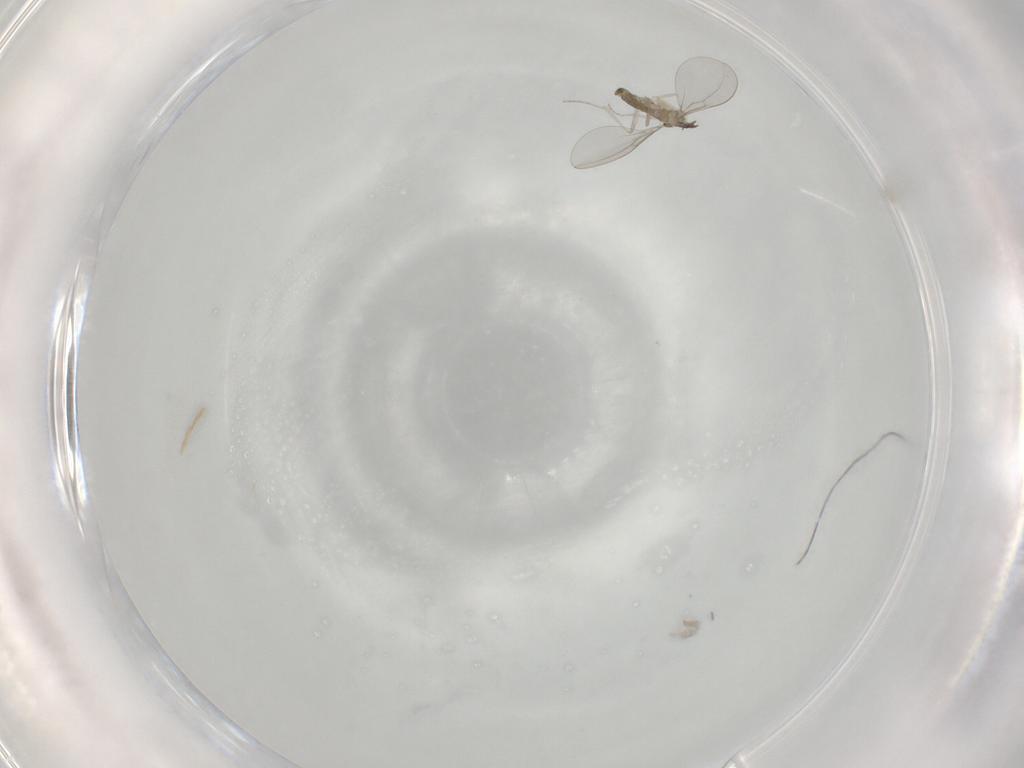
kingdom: Animalia
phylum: Arthropoda
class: Insecta
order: Diptera
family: Cecidomyiidae
